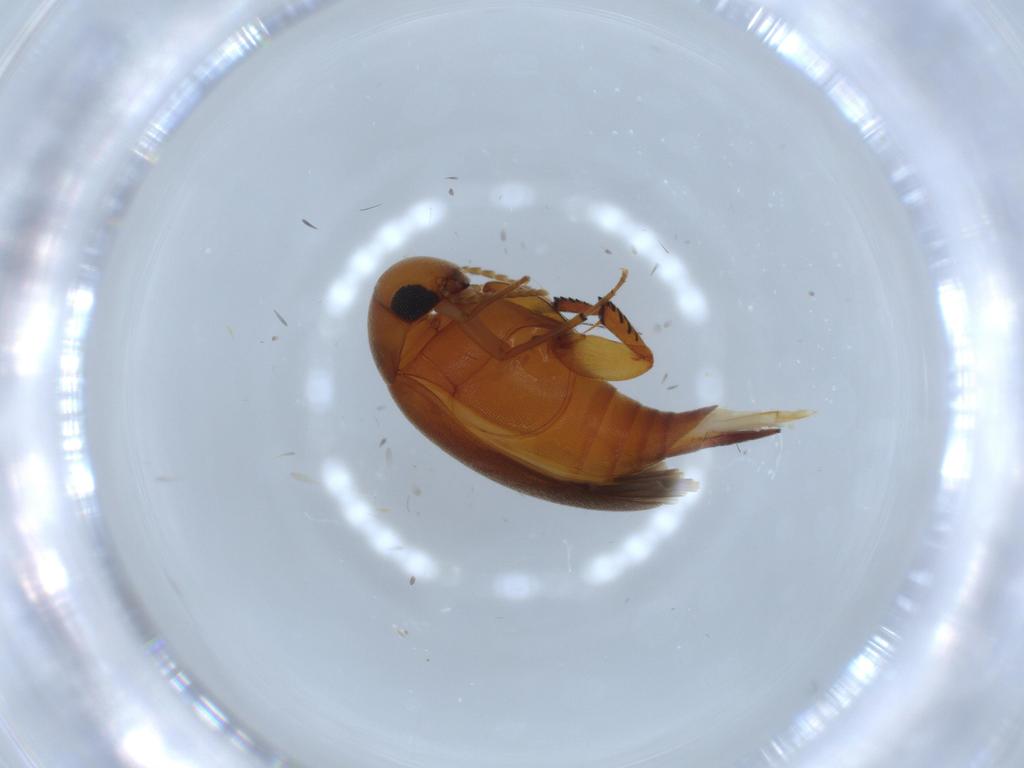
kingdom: Animalia
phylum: Arthropoda
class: Insecta
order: Coleoptera
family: Mordellidae
